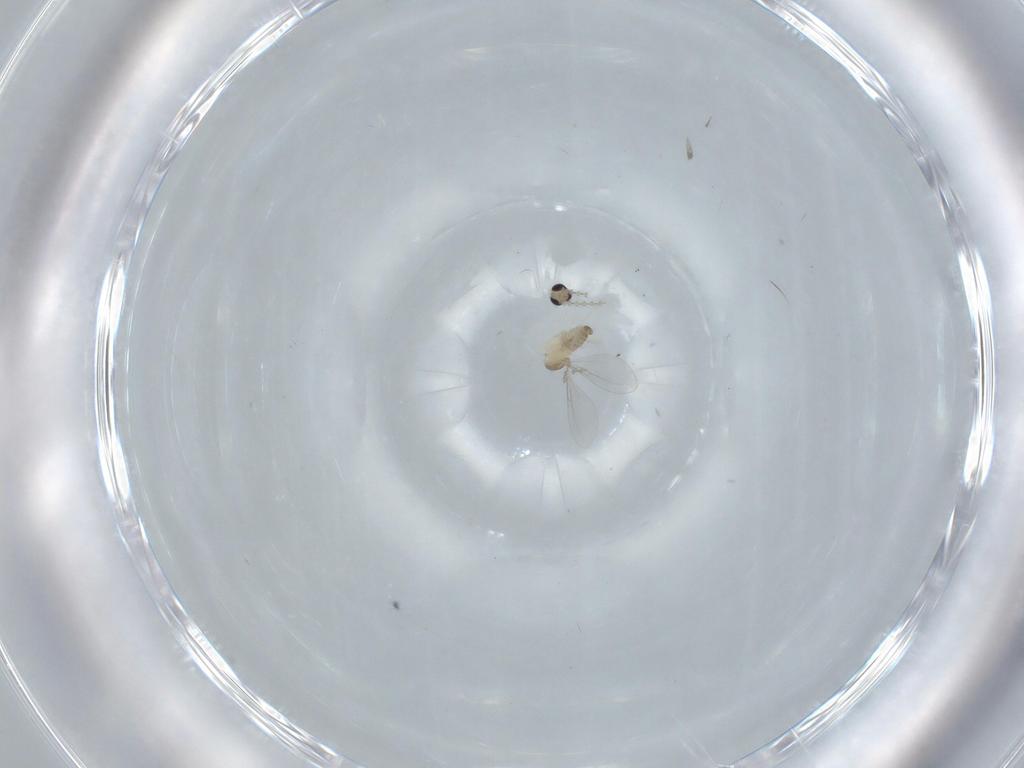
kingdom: Animalia
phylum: Arthropoda
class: Insecta
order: Diptera
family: Cecidomyiidae
